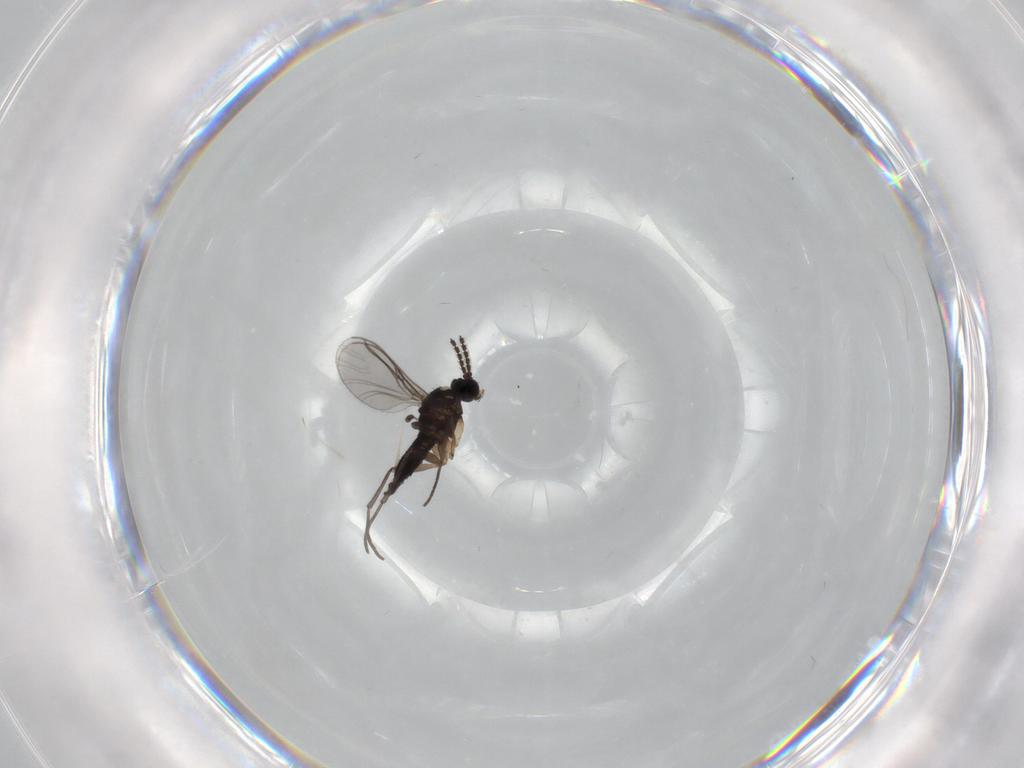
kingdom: Animalia
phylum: Arthropoda
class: Insecta
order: Diptera
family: Sciaridae
